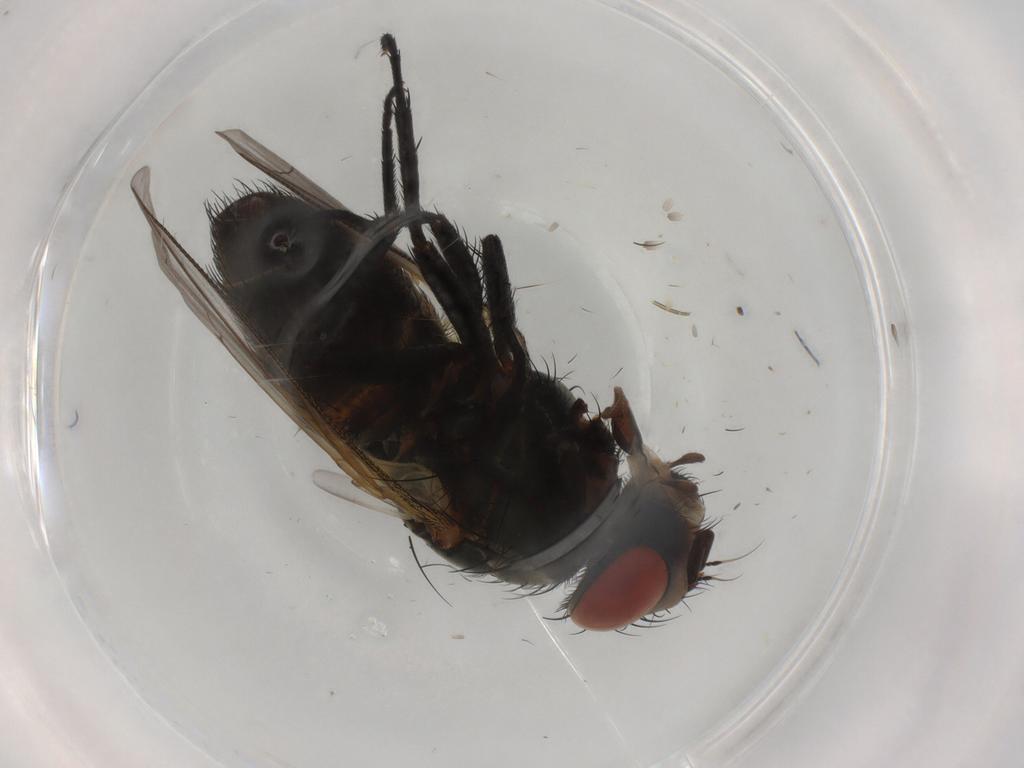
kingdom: Animalia
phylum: Arthropoda
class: Insecta
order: Diptera
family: Sarcophagidae
